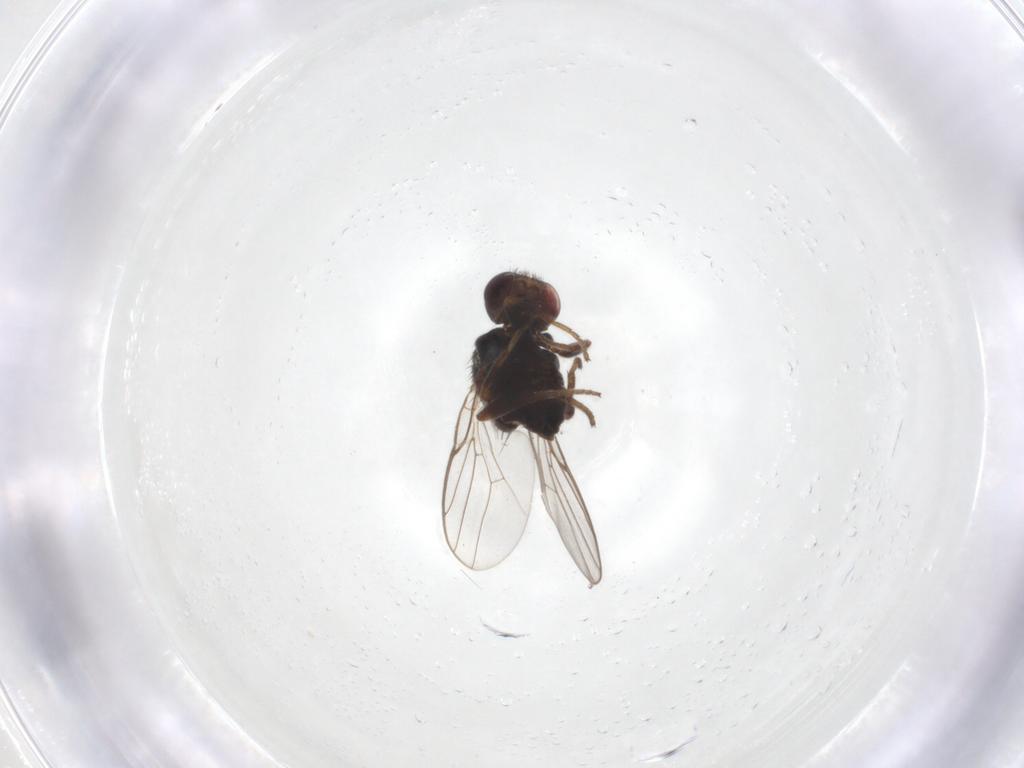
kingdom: Animalia
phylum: Arthropoda
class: Insecta
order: Diptera
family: Chloropidae
